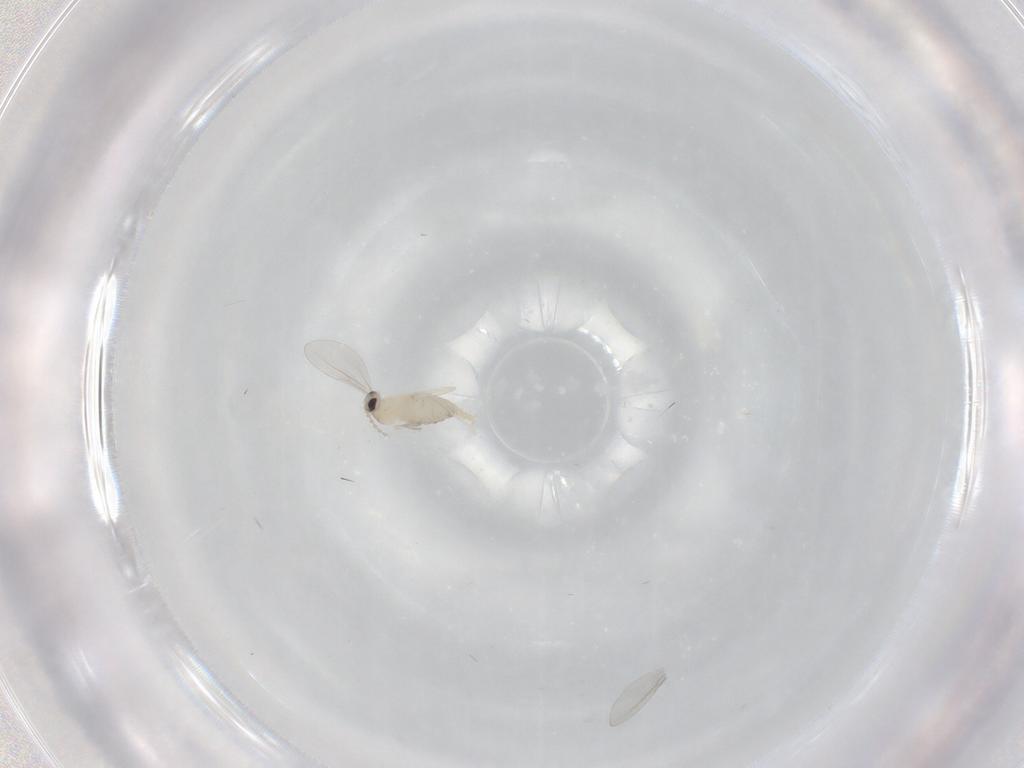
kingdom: Animalia
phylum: Arthropoda
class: Insecta
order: Diptera
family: Cecidomyiidae
